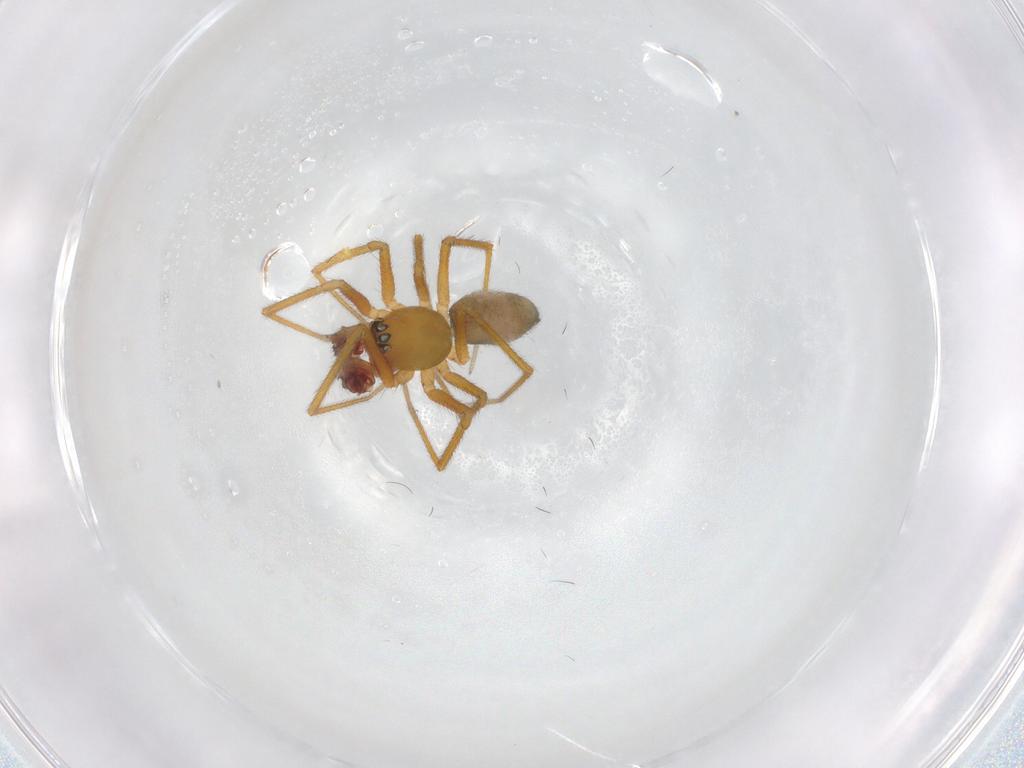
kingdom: Animalia
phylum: Arthropoda
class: Arachnida
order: Araneae
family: Linyphiidae
